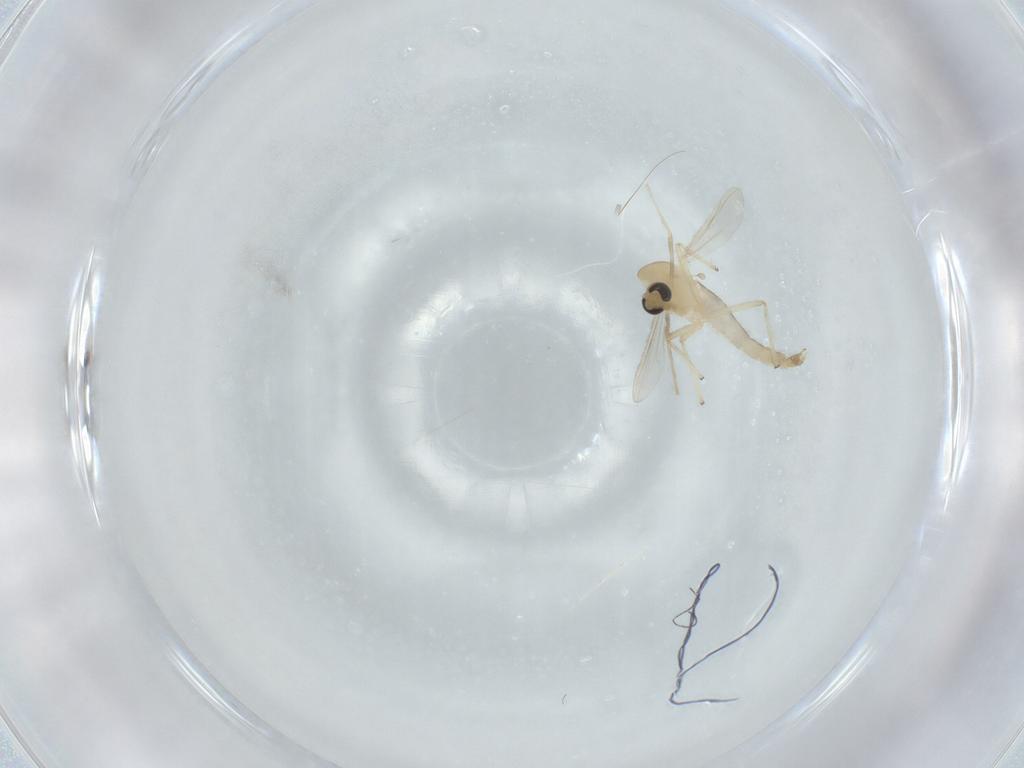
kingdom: Animalia
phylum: Arthropoda
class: Insecta
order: Diptera
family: Chironomidae
